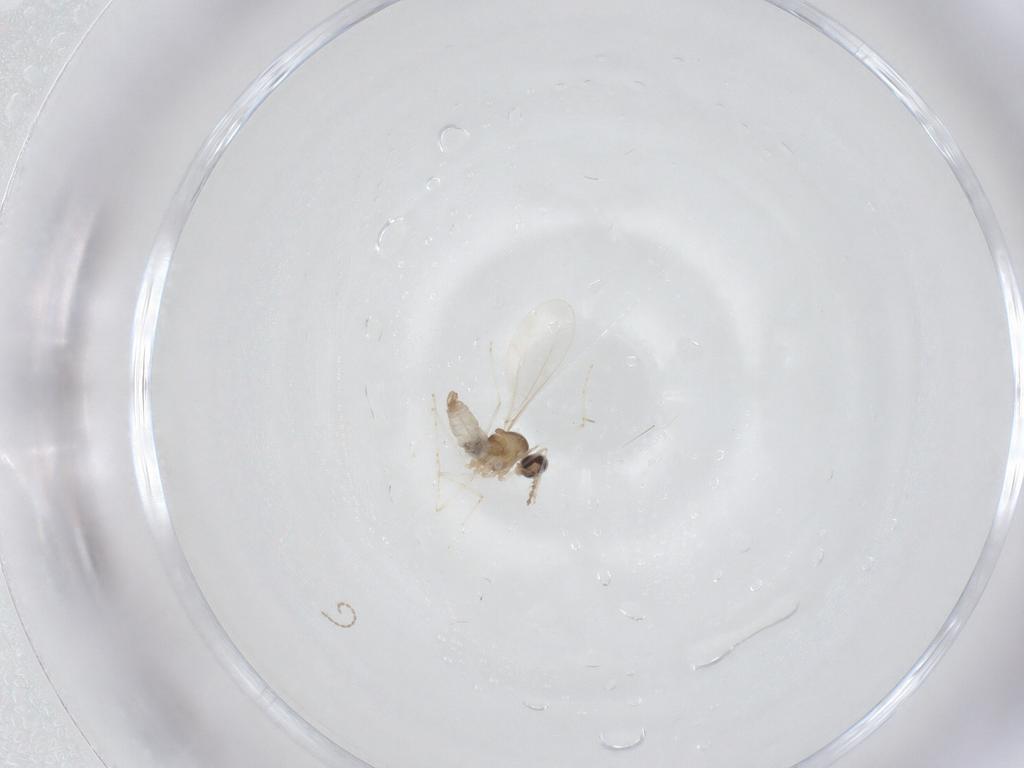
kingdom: Animalia
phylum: Arthropoda
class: Insecta
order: Diptera
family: Cecidomyiidae
